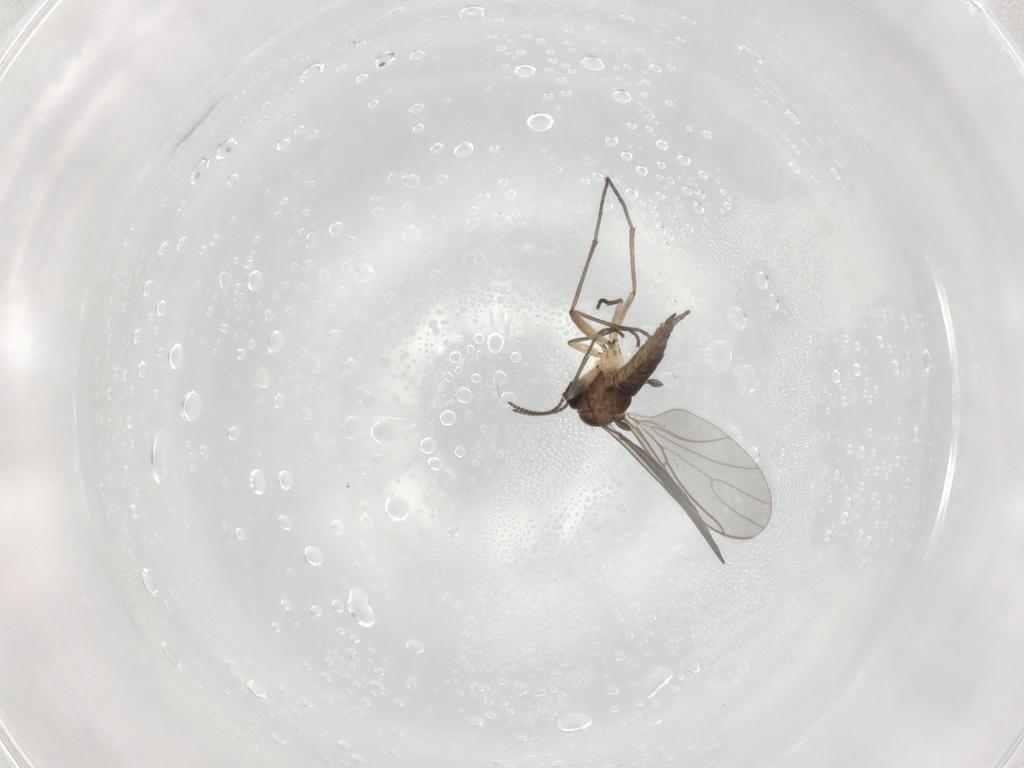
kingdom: Animalia
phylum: Arthropoda
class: Insecta
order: Diptera
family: Sciaridae
